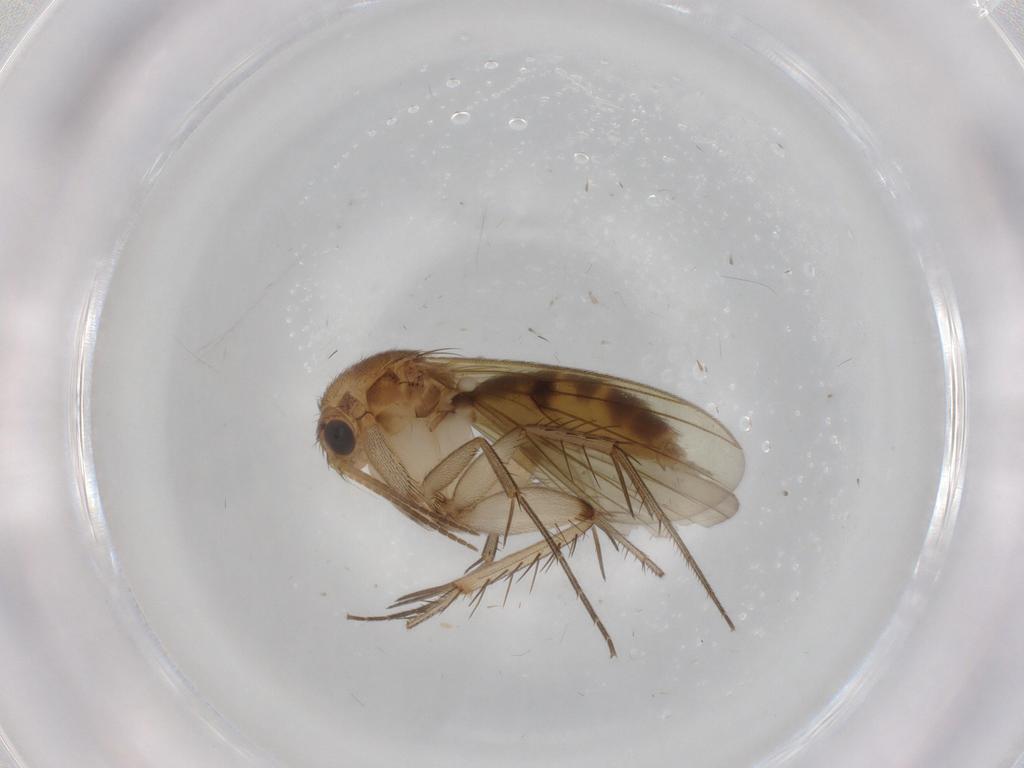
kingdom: Animalia
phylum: Arthropoda
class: Insecta
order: Diptera
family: Cecidomyiidae
